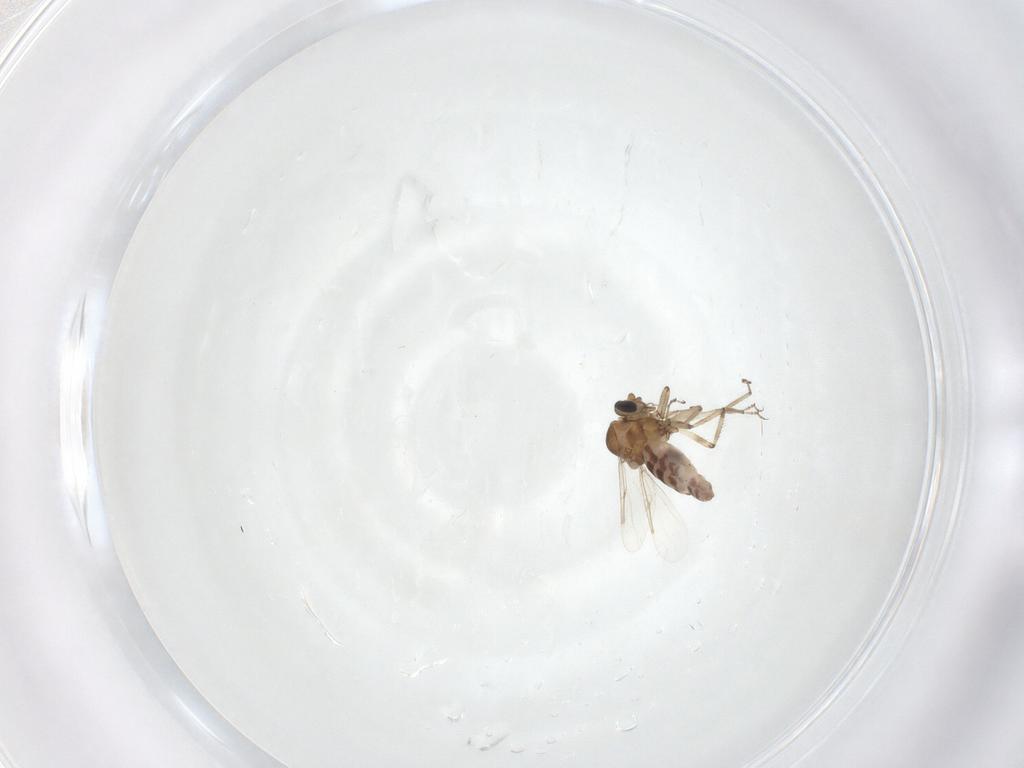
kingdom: Animalia
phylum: Arthropoda
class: Insecta
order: Diptera
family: Ceratopogonidae
